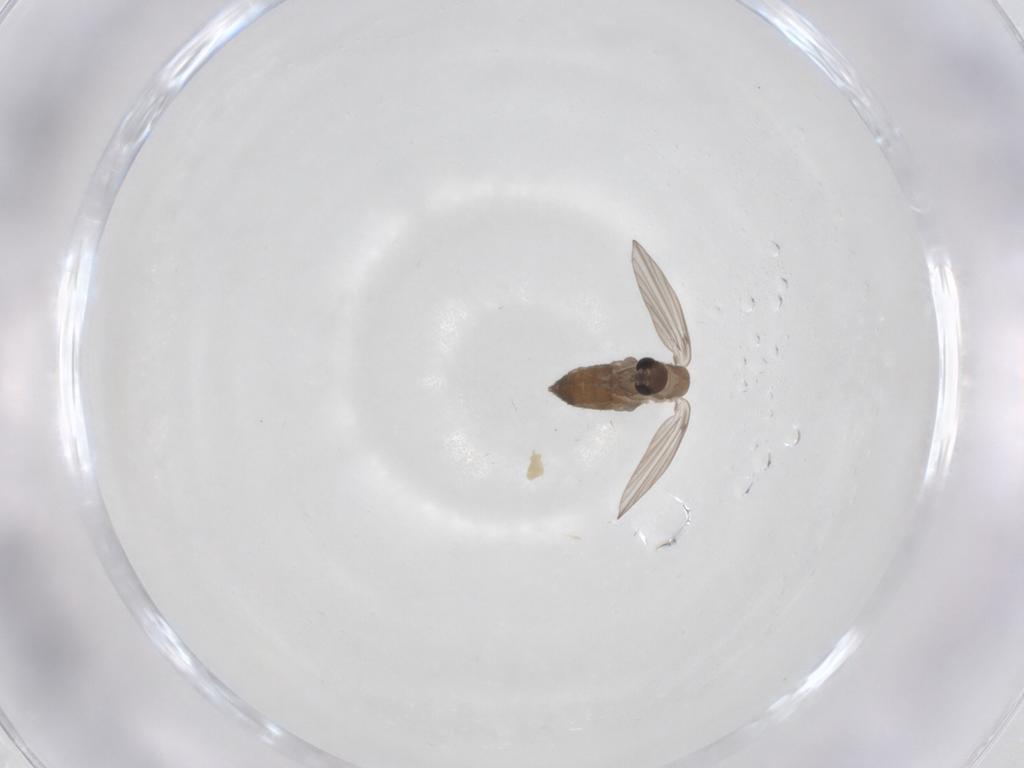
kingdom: Animalia
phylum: Arthropoda
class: Insecta
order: Diptera
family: Psychodidae
